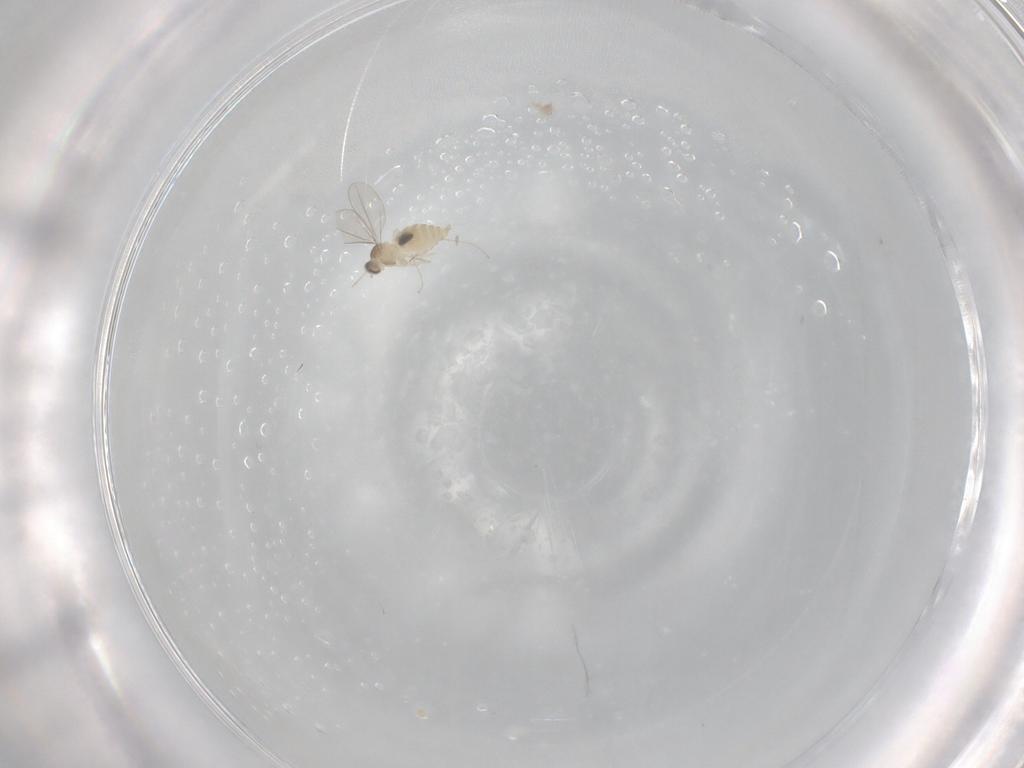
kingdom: Animalia
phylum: Arthropoda
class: Insecta
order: Diptera
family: Cecidomyiidae
